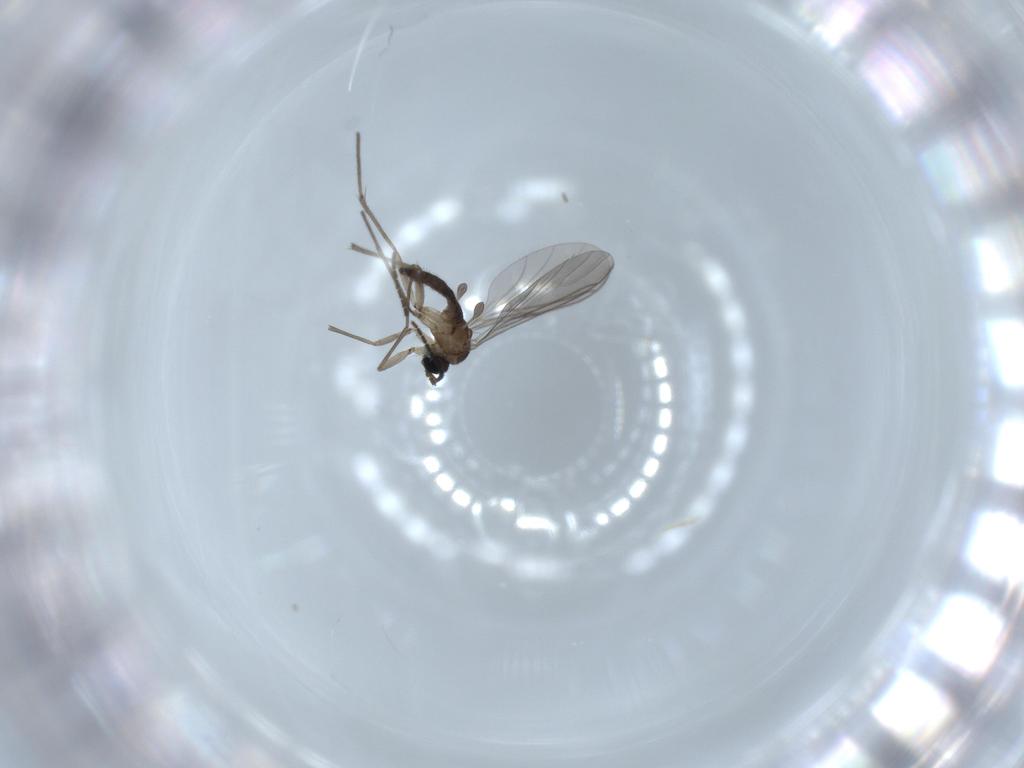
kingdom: Animalia
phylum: Arthropoda
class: Insecta
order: Diptera
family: Sciaridae
